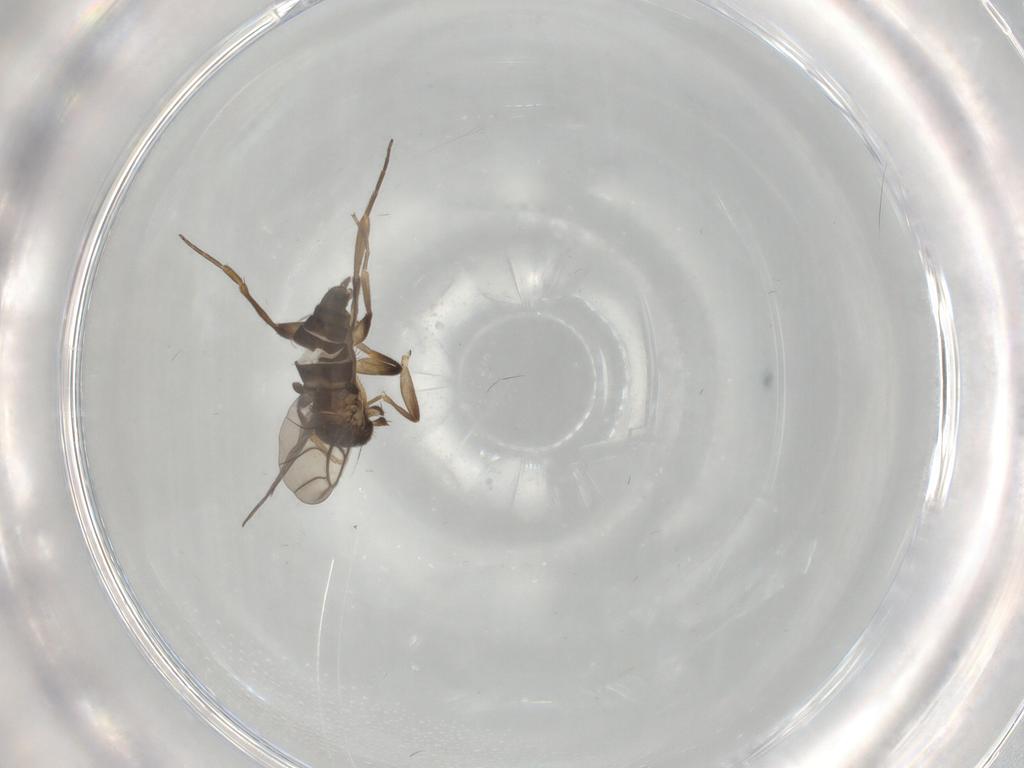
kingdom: Animalia
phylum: Arthropoda
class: Insecta
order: Diptera
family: Phoridae
